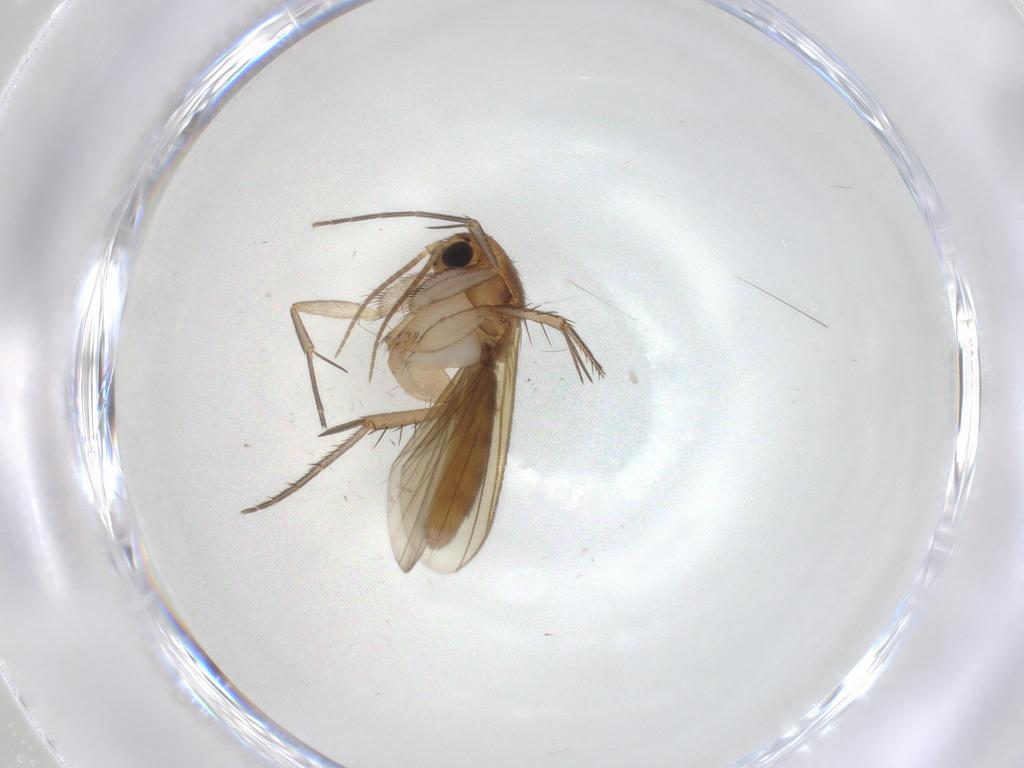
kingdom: Animalia
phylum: Arthropoda
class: Insecta
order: Diptera
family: Mycetophilidae
